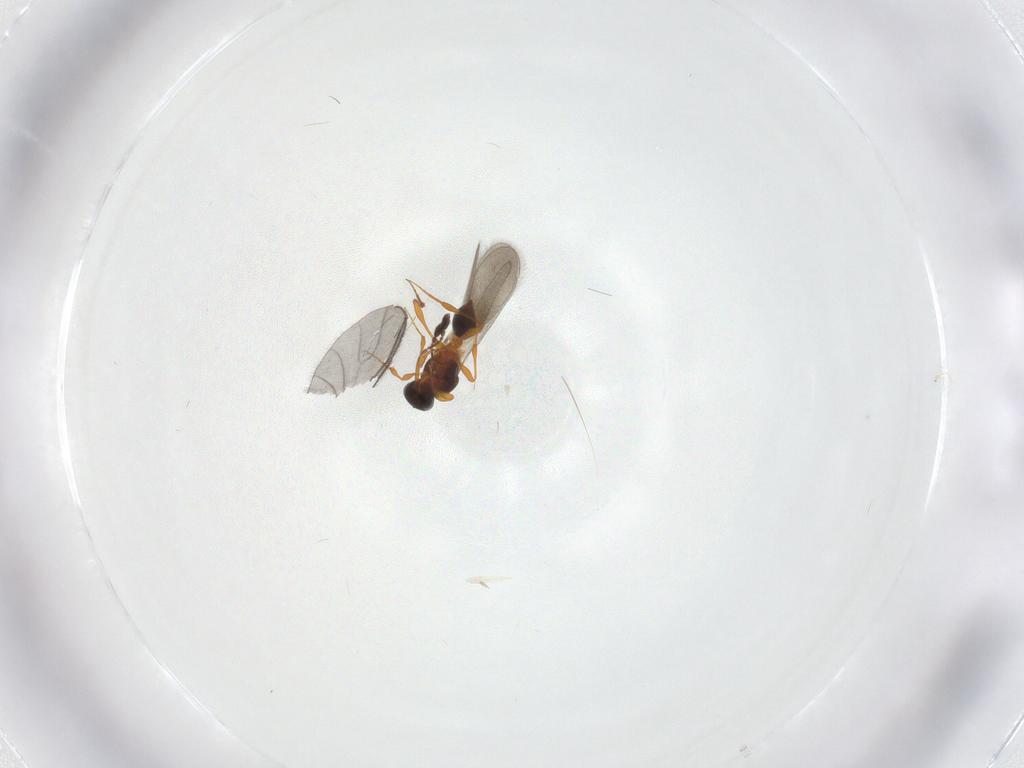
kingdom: Animalia
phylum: Arthropoda
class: Insecta
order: Hymenoptera
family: Platygastridae
